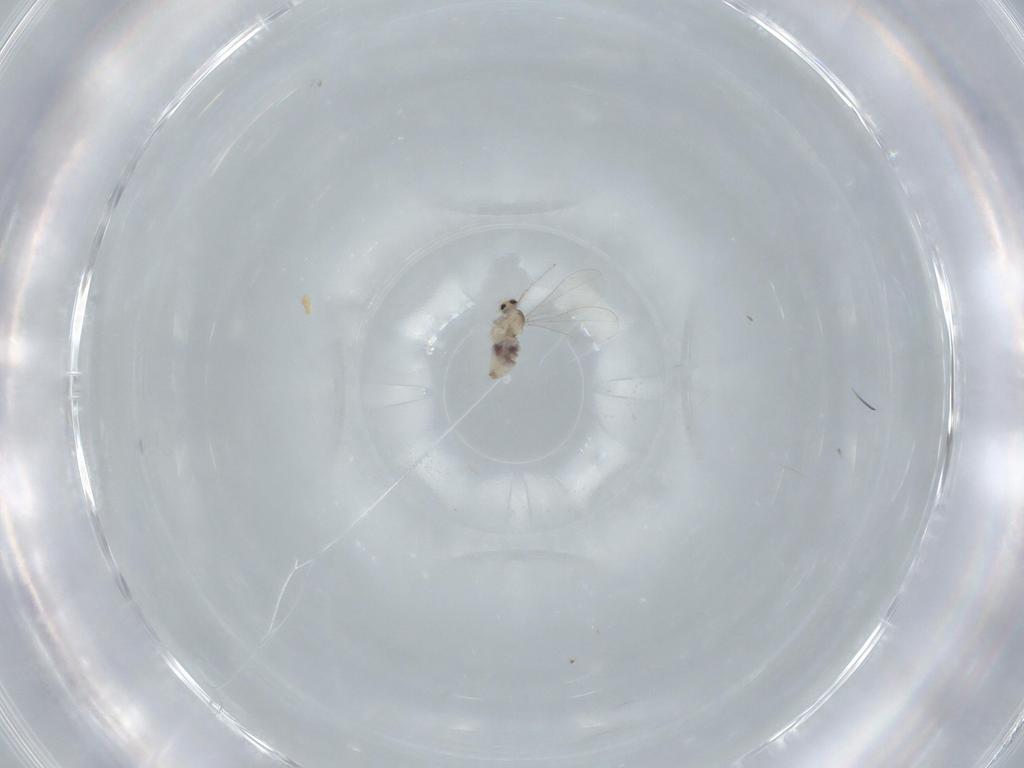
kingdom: Animalia
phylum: Arthropoda
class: Insecta
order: Diptera
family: Cecidomyiidae
